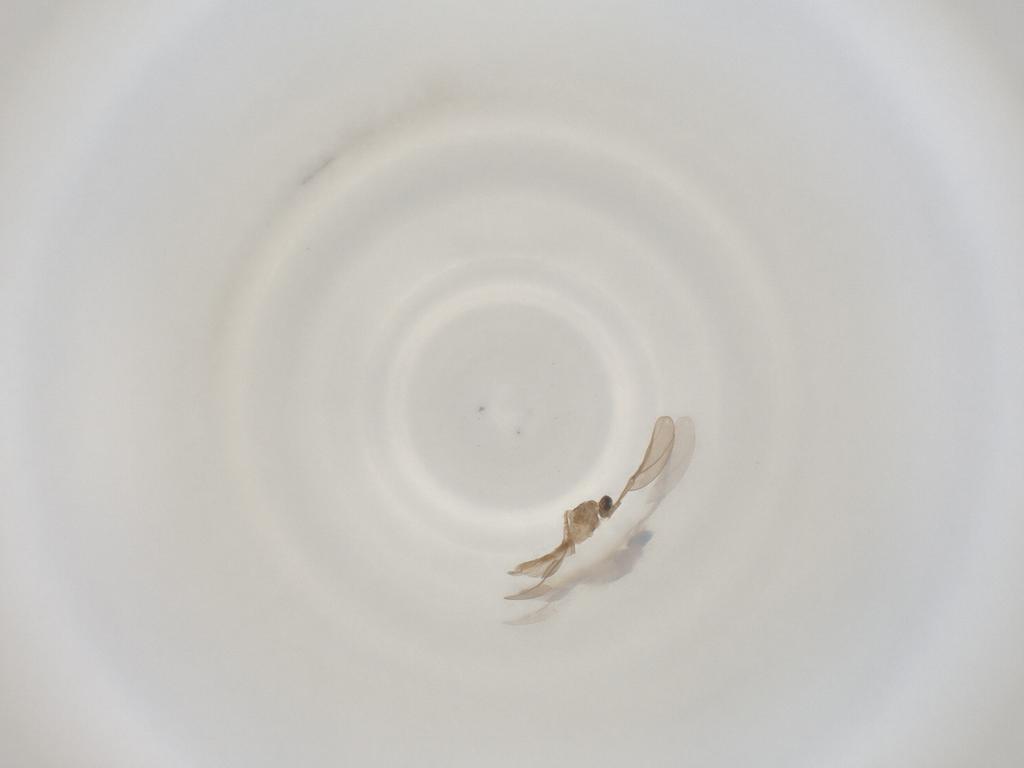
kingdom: Animalia
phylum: Arthropoda
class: Insecta
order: Diptera
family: Cecidomyiidae
